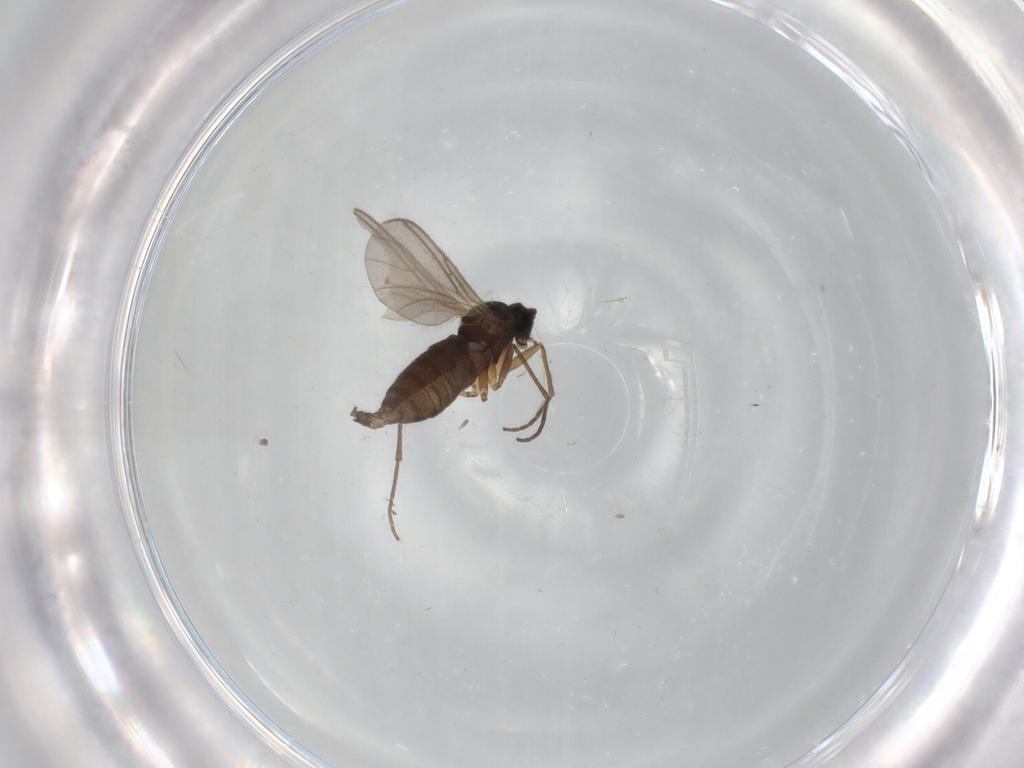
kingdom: Animalia
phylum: Arthropoda
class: Insecta
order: Diptera
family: Sciaridae
